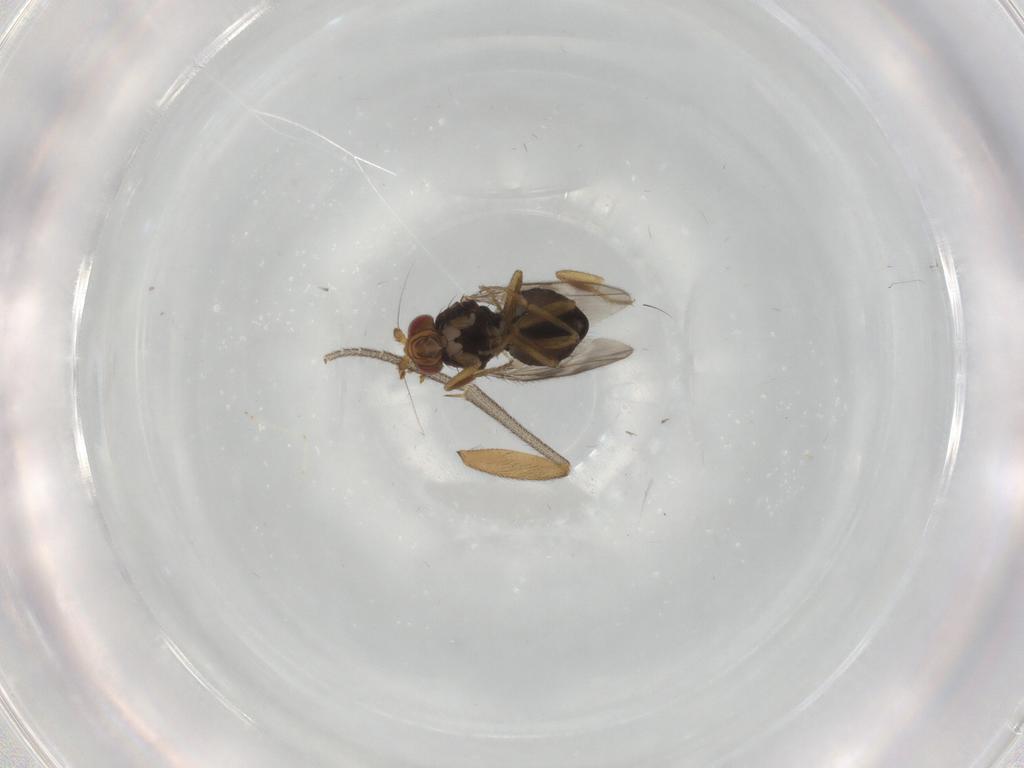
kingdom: Animalia
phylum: Arthropoda
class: Insecta
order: Diptera
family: Mycetophilidae
